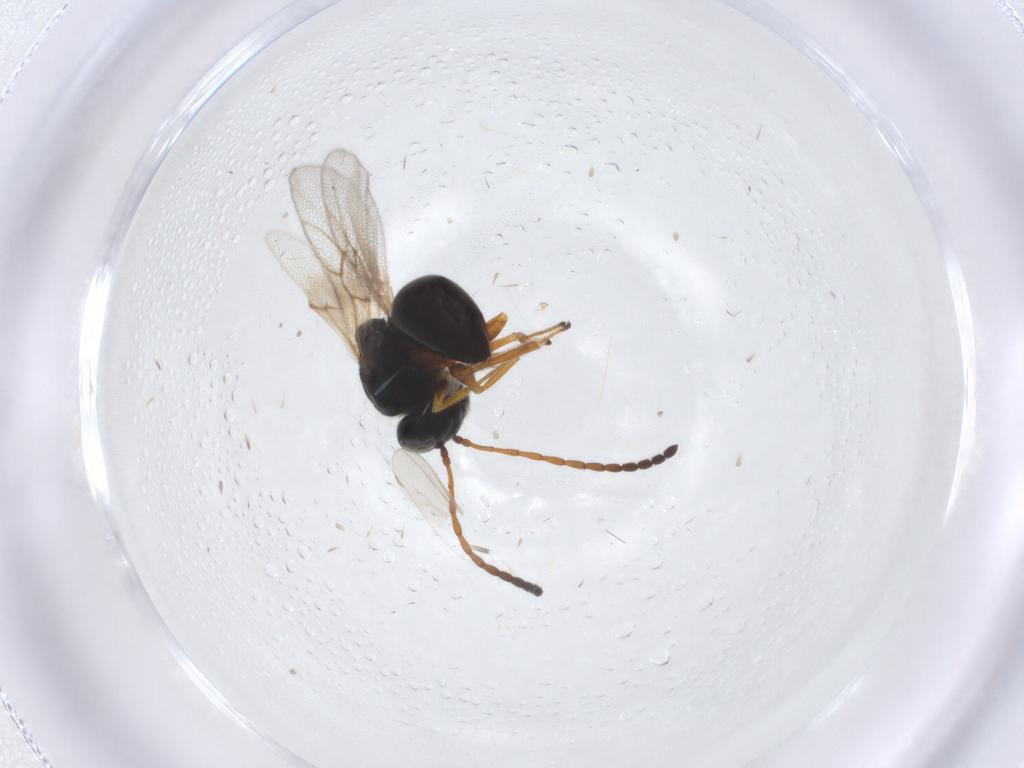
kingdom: Animalia
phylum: Arthropoda
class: Insecta
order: Hymenoptera
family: Figitidae
